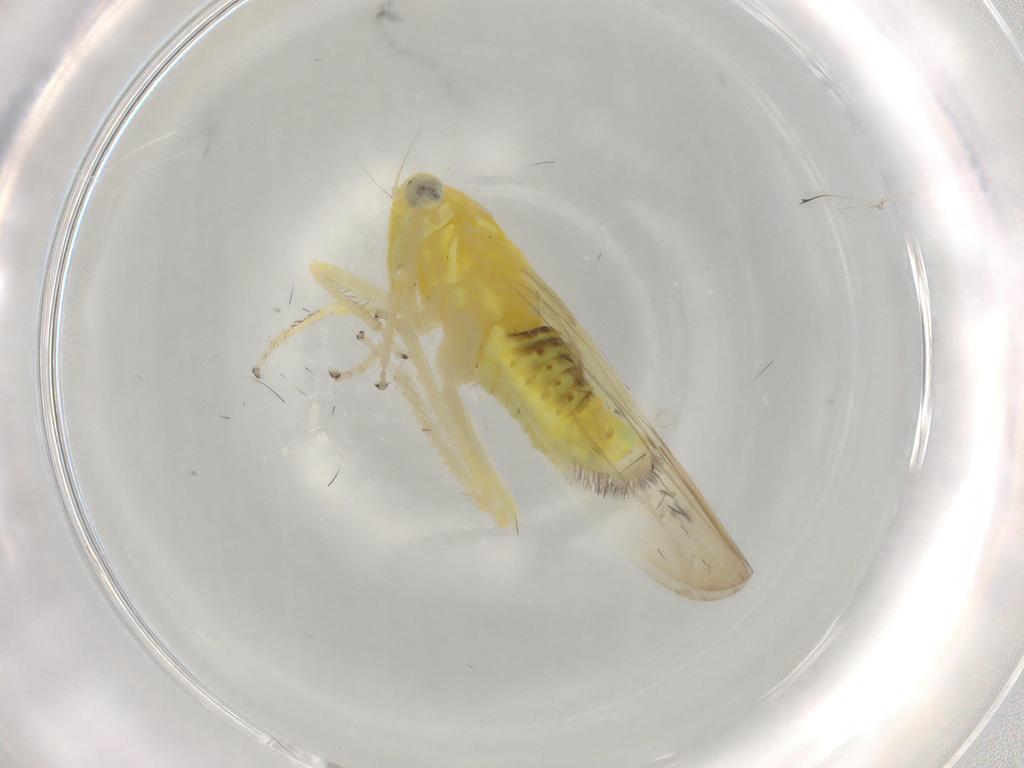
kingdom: Animalia
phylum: Arthropoda
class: Insecta
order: Hemiptera
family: Cicadellidae
